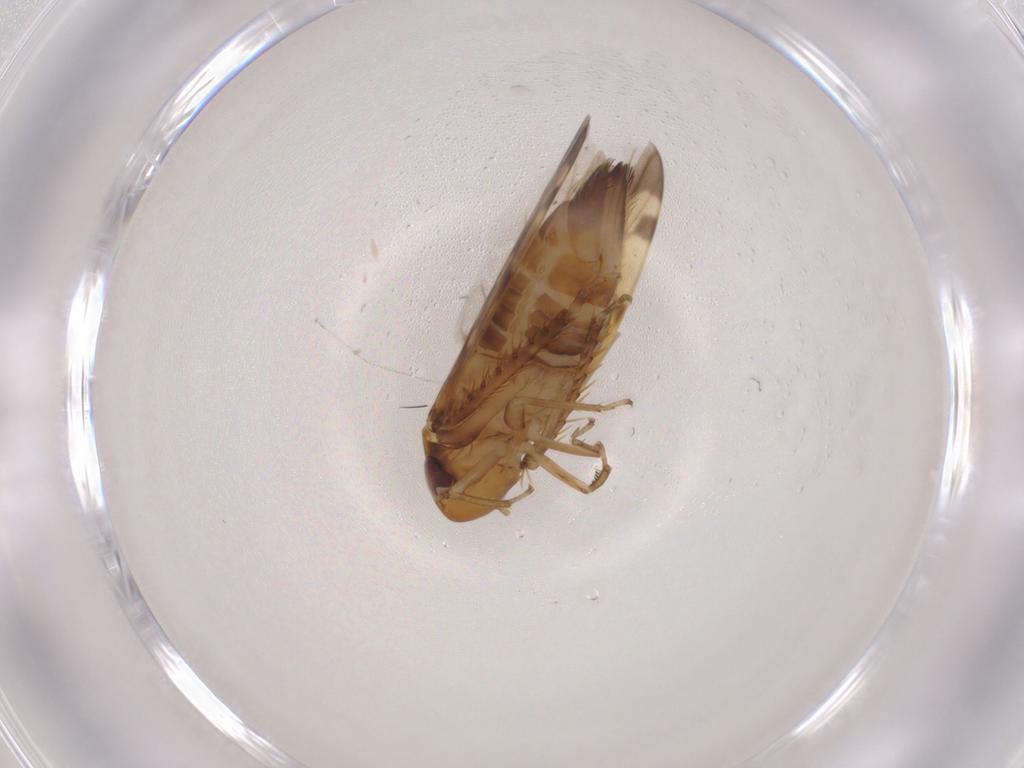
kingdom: Animalia
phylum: Arthropoda
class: Insecta
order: Hemiptera
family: Cicadellidae
